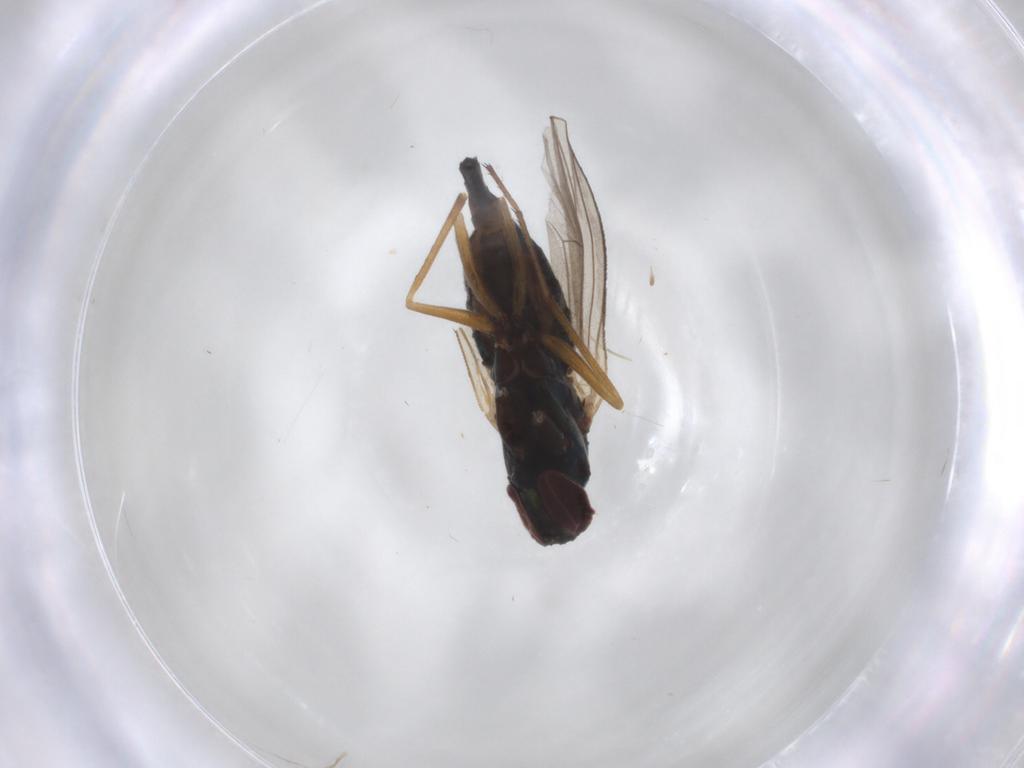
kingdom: Animalia
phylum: Arthropoda
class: Insecta
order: Diptera
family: Dolichopodidae
